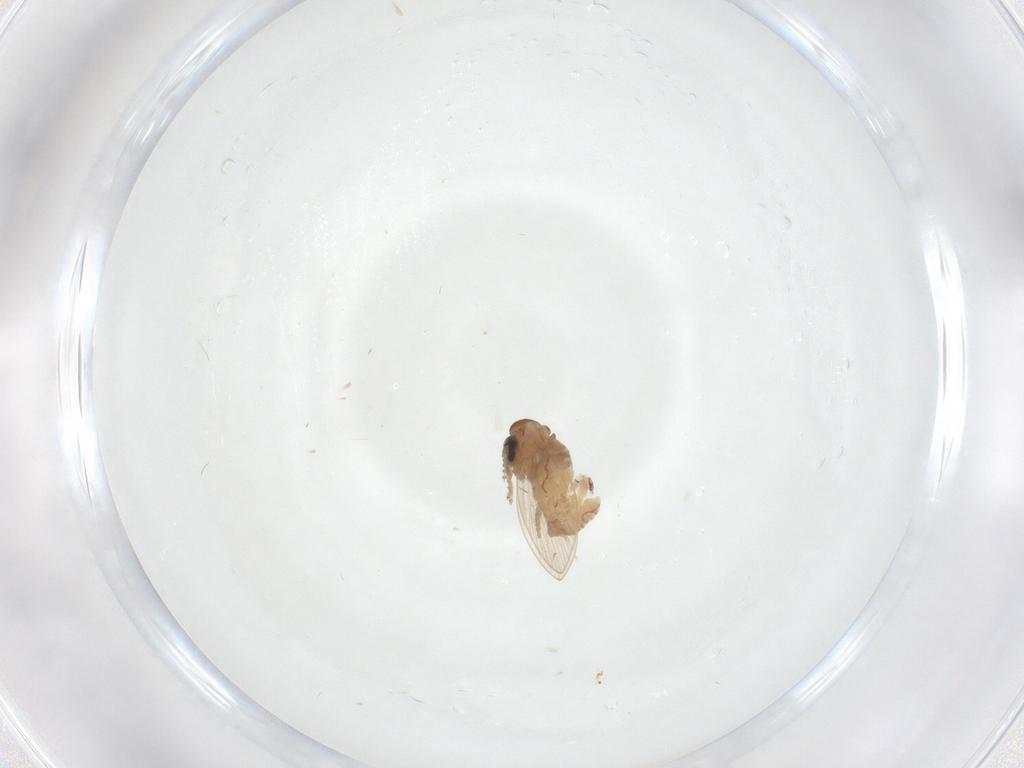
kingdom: Animalia
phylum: Arthropoda
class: Insecta
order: Diptera
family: Psychodidae
